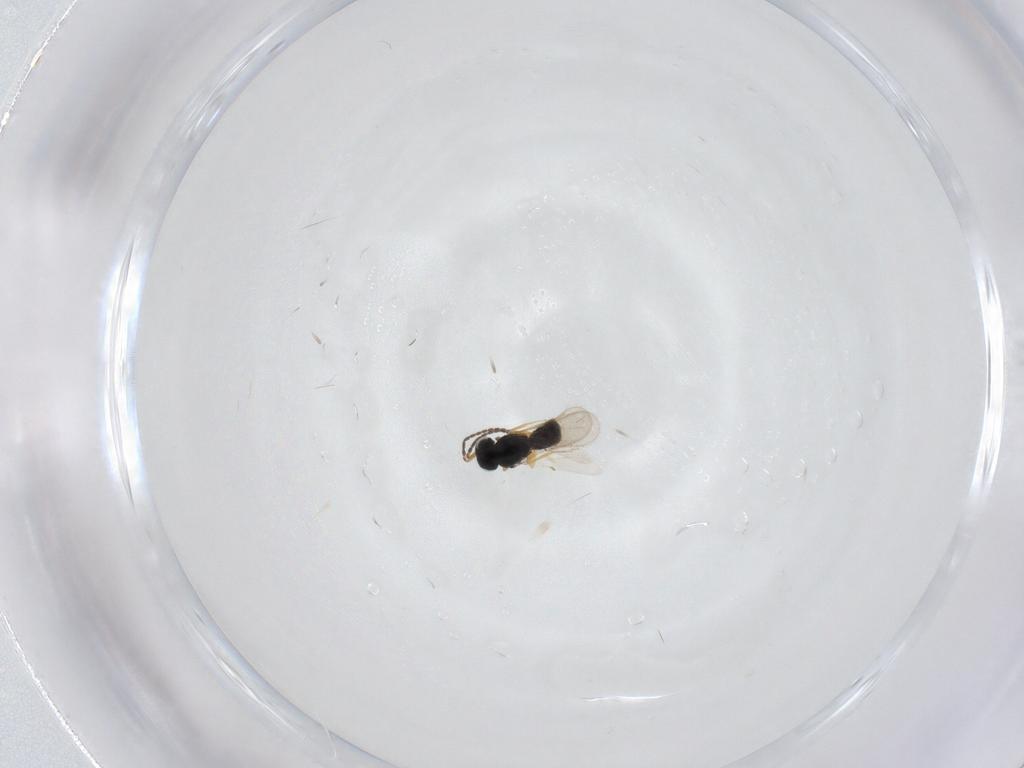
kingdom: Animalia
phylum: Arthropoda
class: Insecta
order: Hymenoptera
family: Scelionidae
